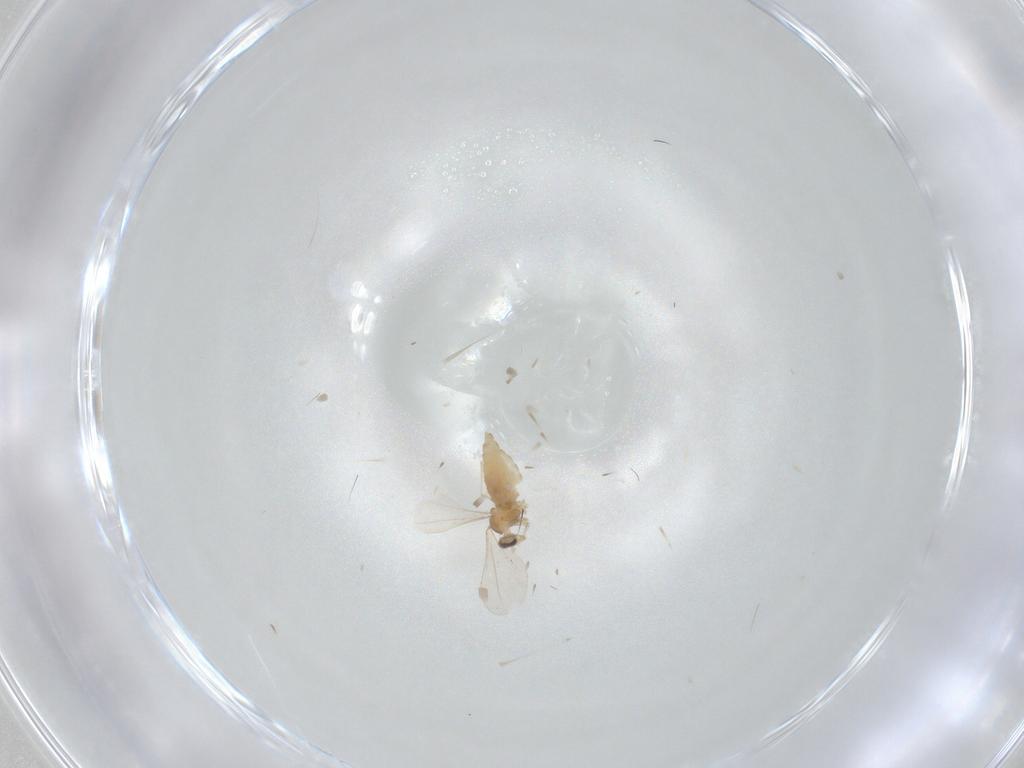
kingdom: Animalia
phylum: Arthropoda
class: Insecta
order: Diptera
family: Cecidomyiidae
